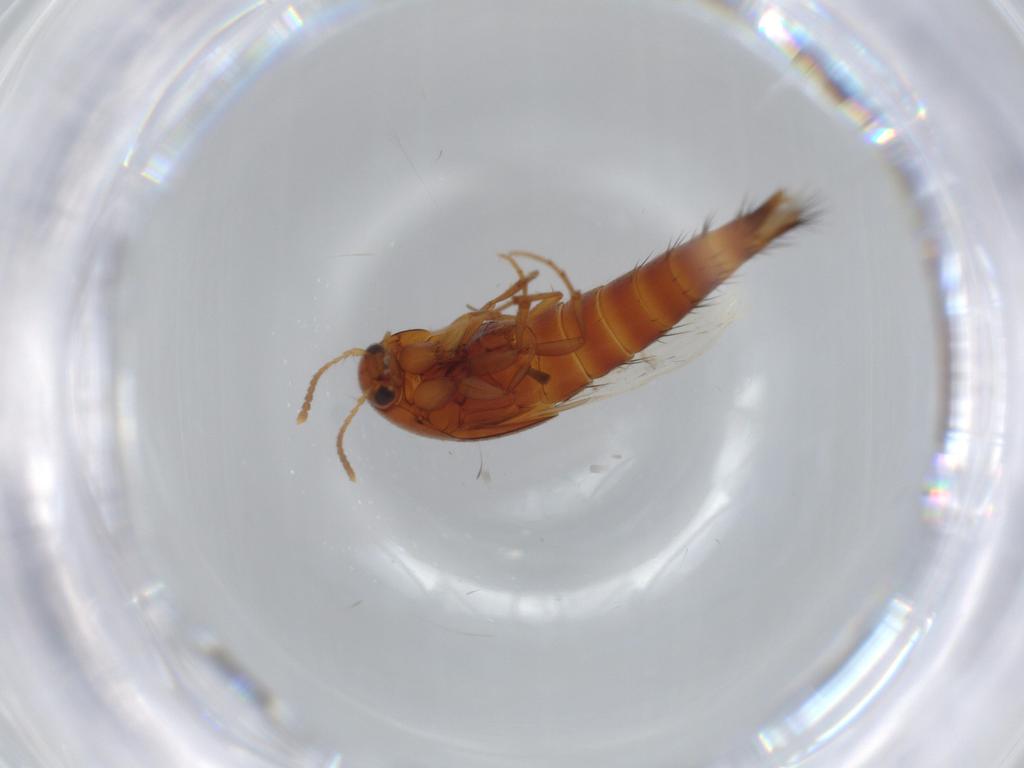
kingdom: Animalia
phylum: Arthropoda
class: Insecta
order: Coleoptera
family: Staphylinidae
